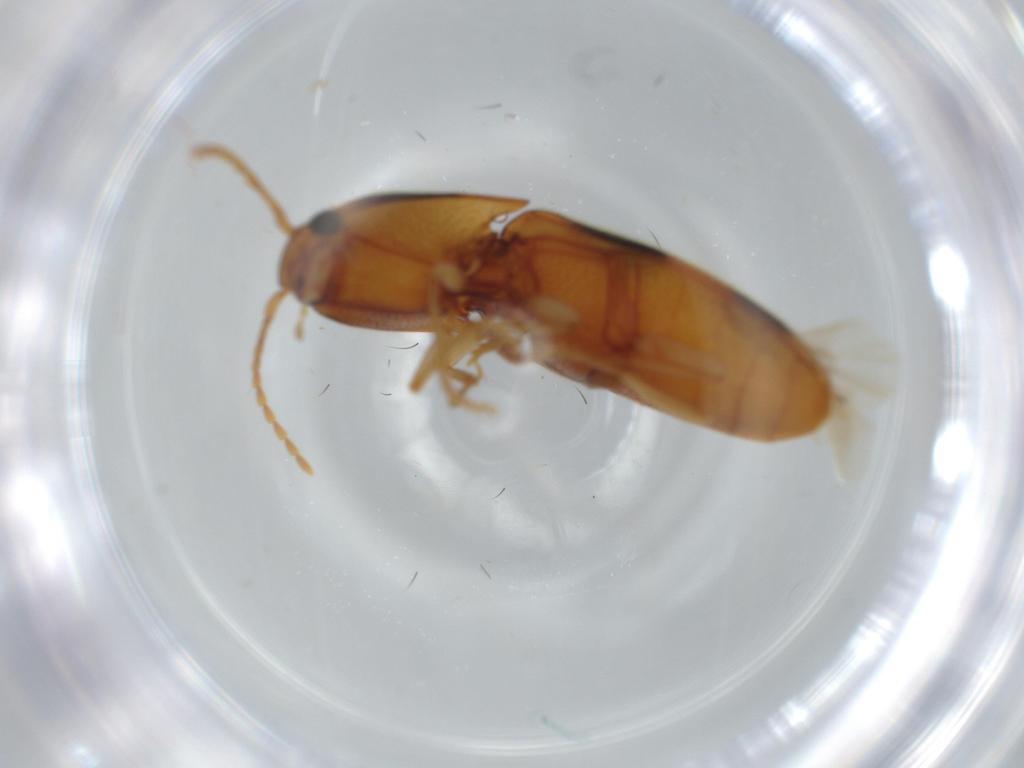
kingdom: Animalia
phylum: Arthropoda
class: Insecta
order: Coleoptera
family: Elateridae
